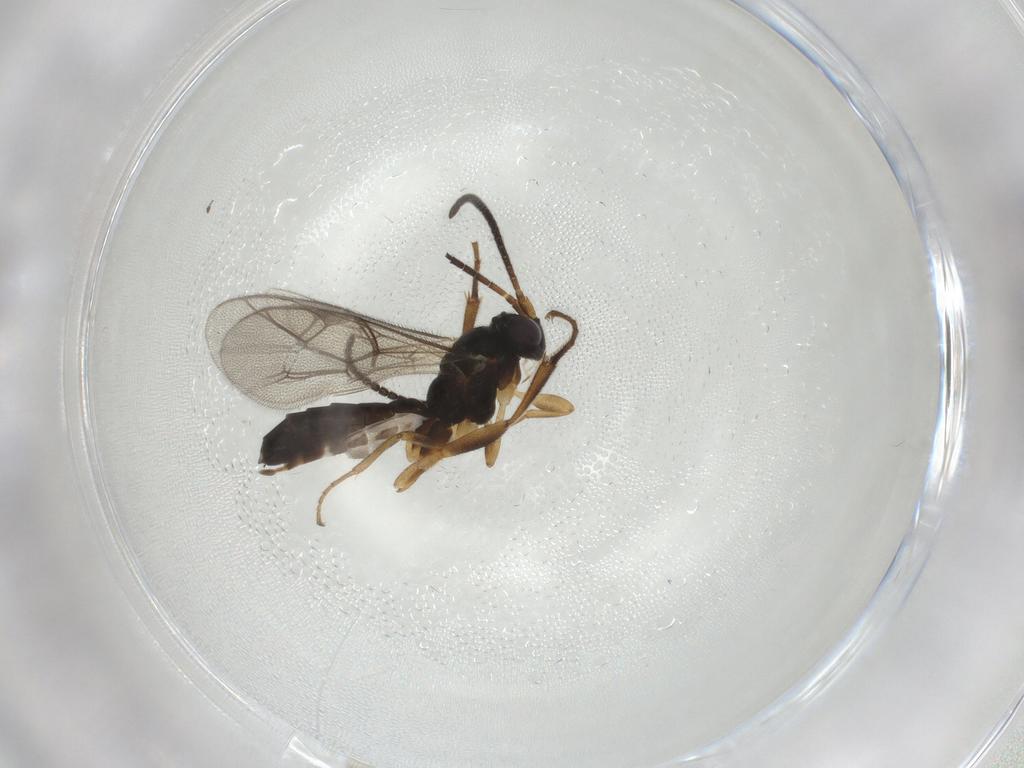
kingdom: Animalia
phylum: Arthropoda
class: Insecta
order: Hymenoptera
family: Ichneumonidae
